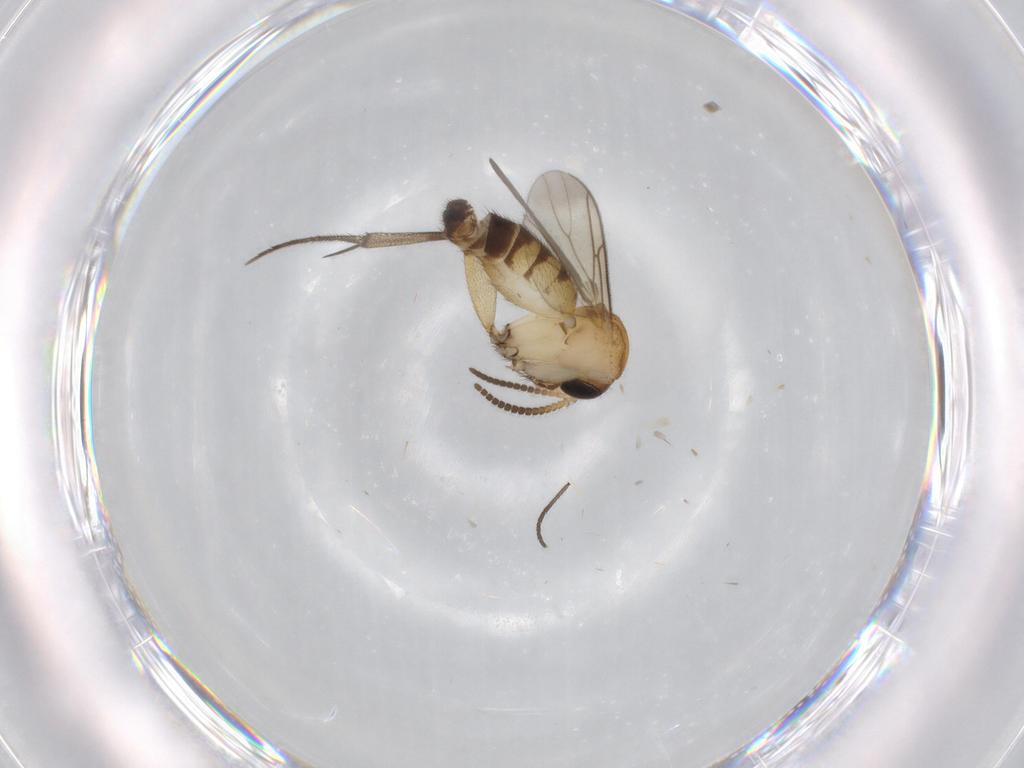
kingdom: Animalia
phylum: Arthropoda
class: Insecta
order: Diptera
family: Mycetophilidae
